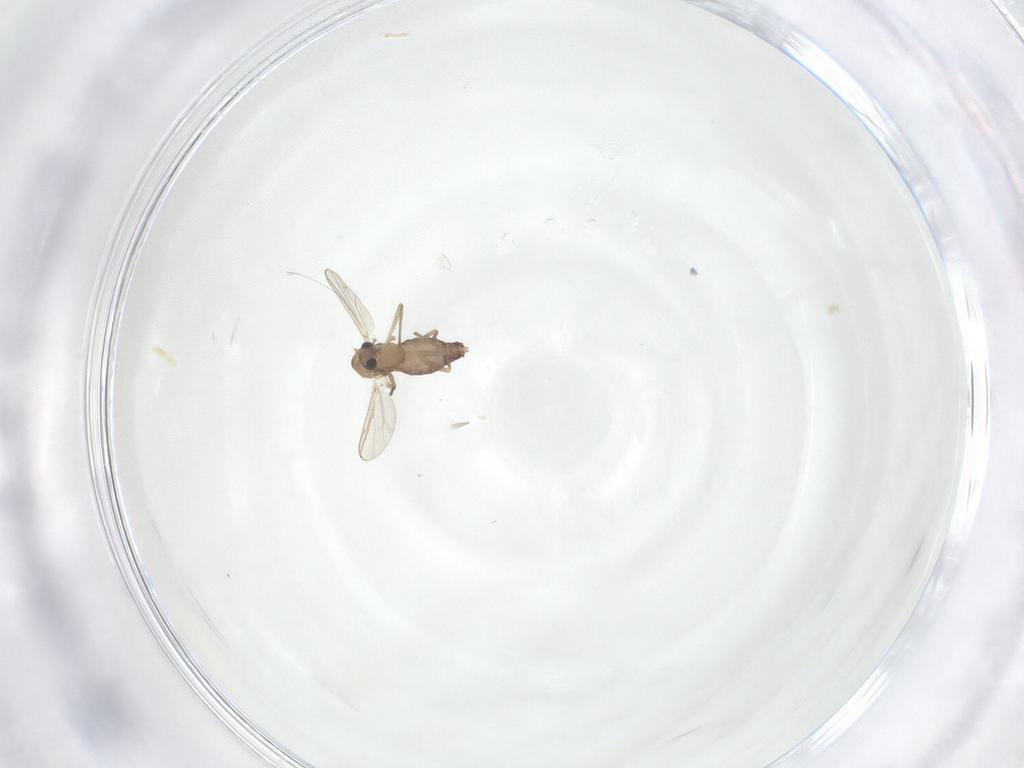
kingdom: Animalia
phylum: Arthropoda
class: Insecta
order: Diptera
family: Chironomidae
